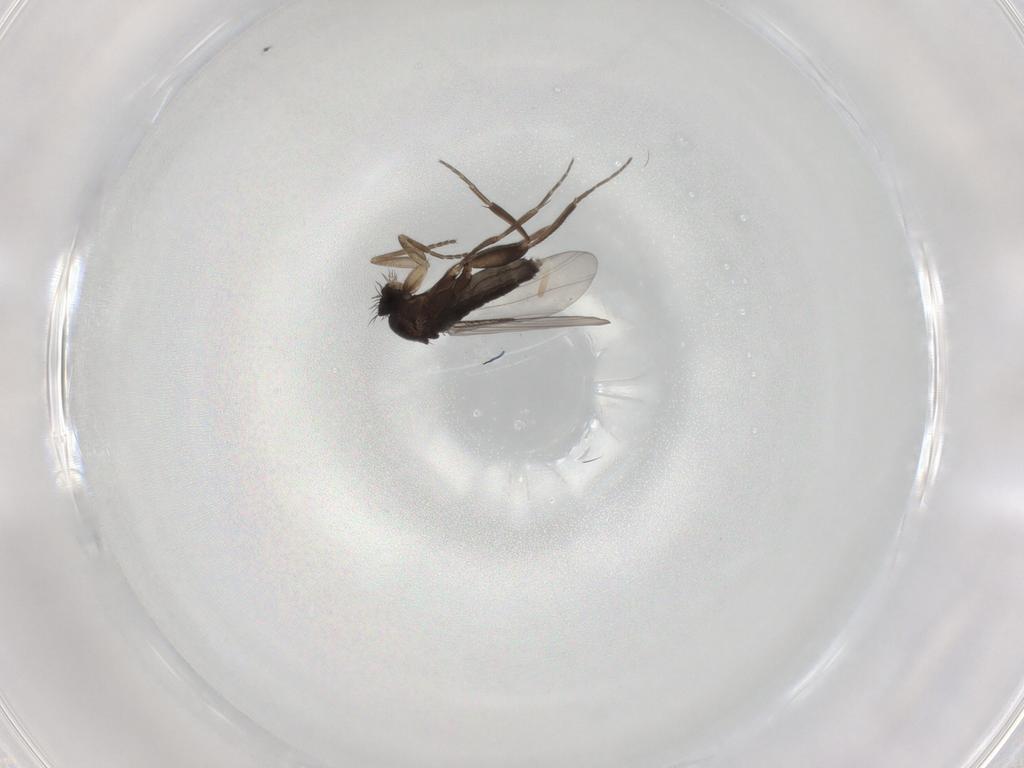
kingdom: Animalia
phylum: Arthropoda
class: Insecta
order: Diptera
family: Phoridae
